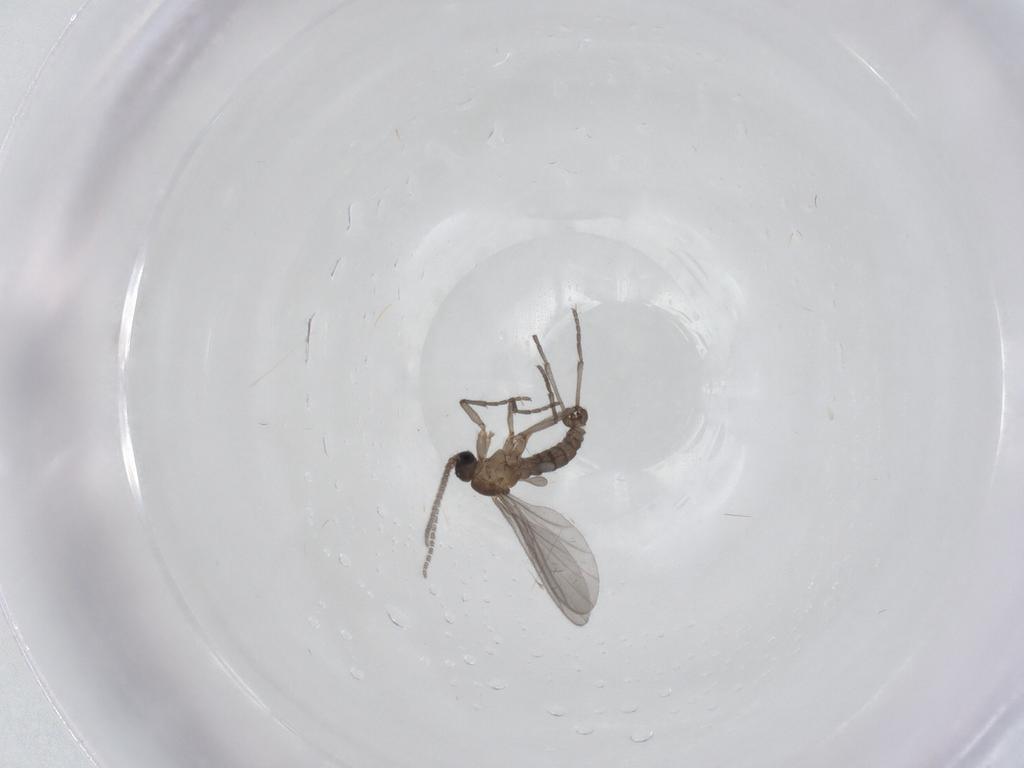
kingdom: Animalia
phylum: Arthropoda
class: Insecta
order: Diptera
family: Sciaridae
